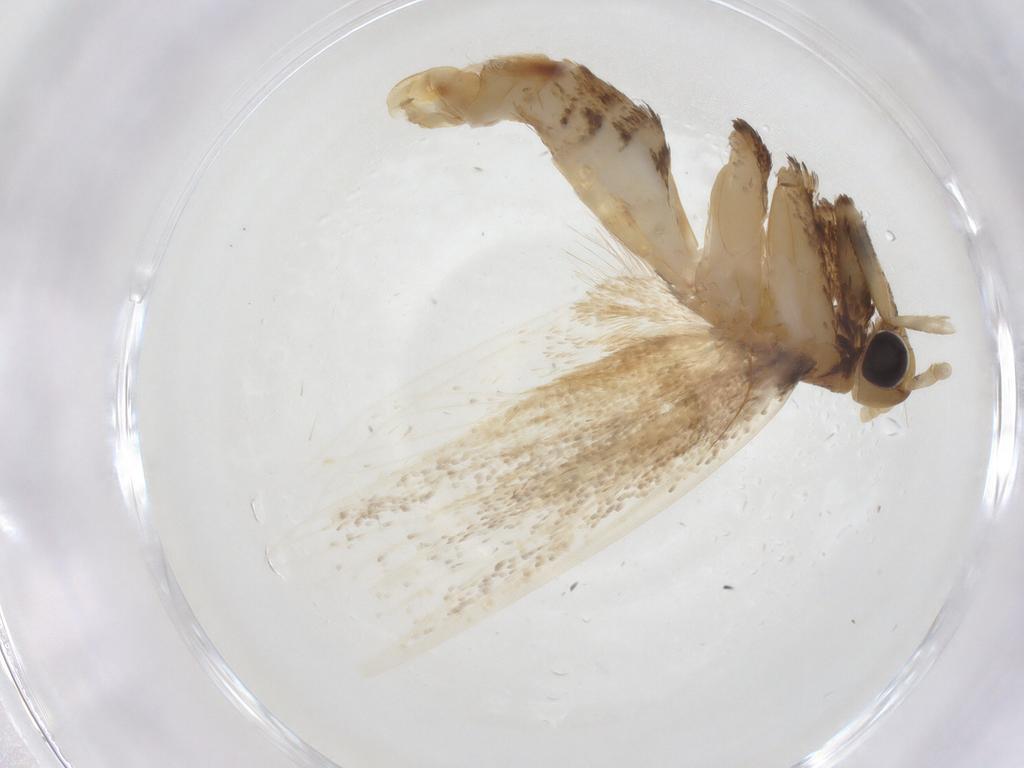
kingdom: Animalia
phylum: Arthropoda
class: Insecta
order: Lepidoptera
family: Lecithoceridae
